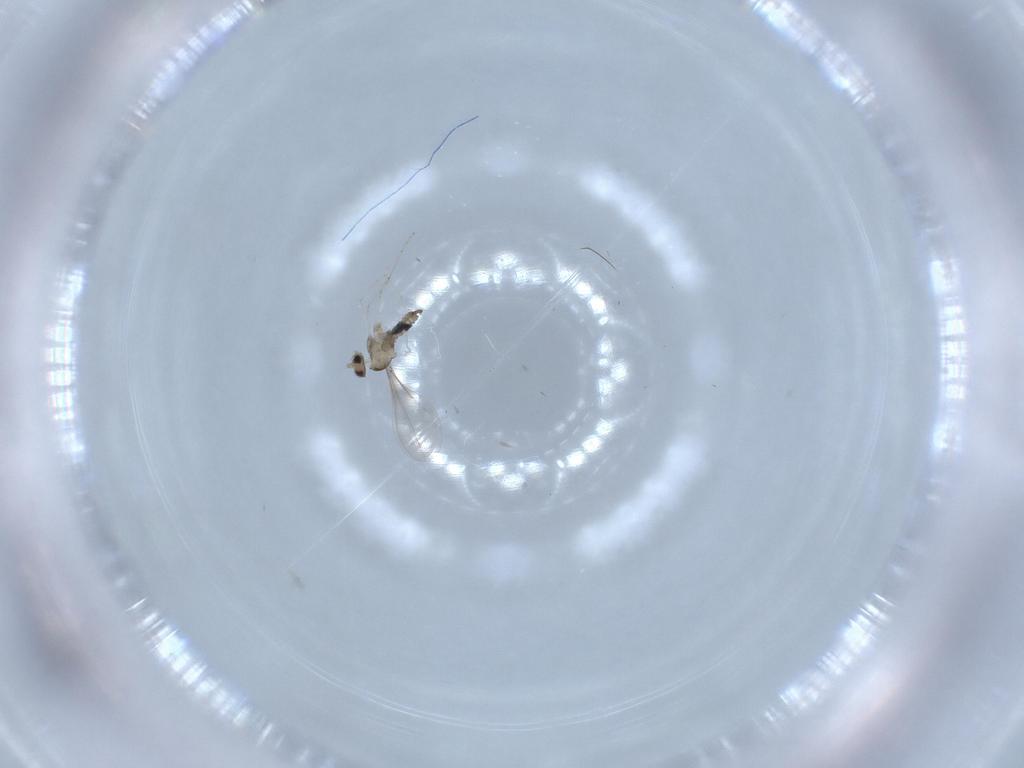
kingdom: Animalia
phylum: Arthropoda
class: Insecta
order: Diptera
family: Cecidomyiidae
